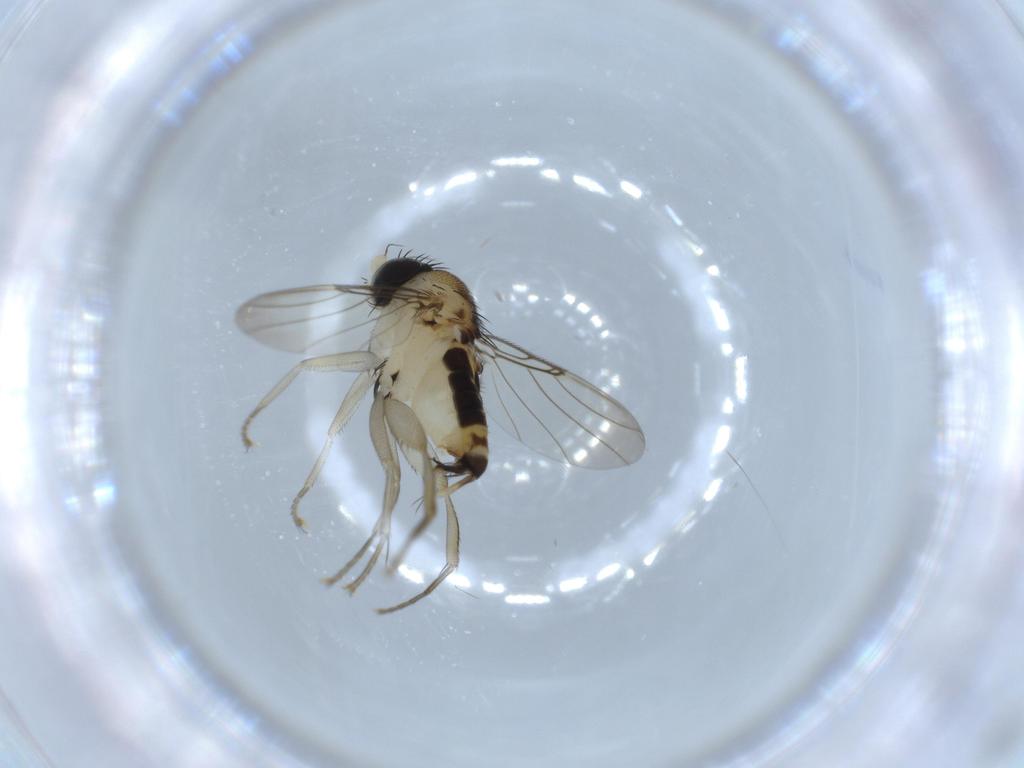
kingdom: Animalia
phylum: Arthropoda
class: Insecta
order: Diptera
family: Phoridae
